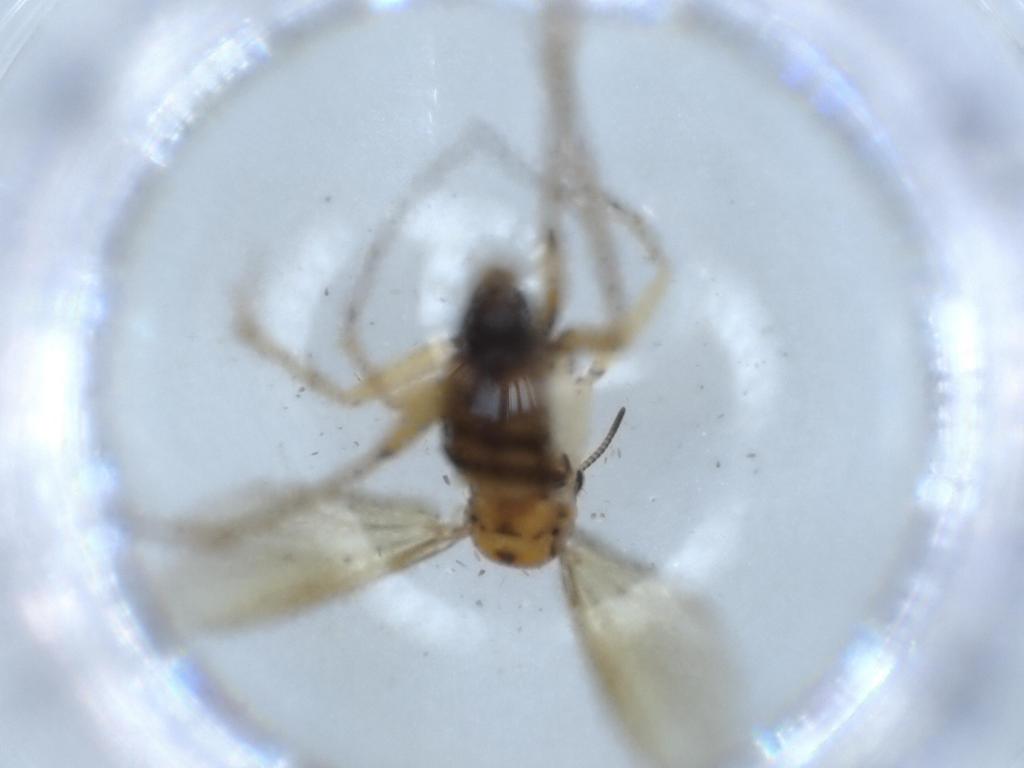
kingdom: Animalia
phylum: Arthropoda
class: Insecta
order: Diptera
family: Mycetophilidae
